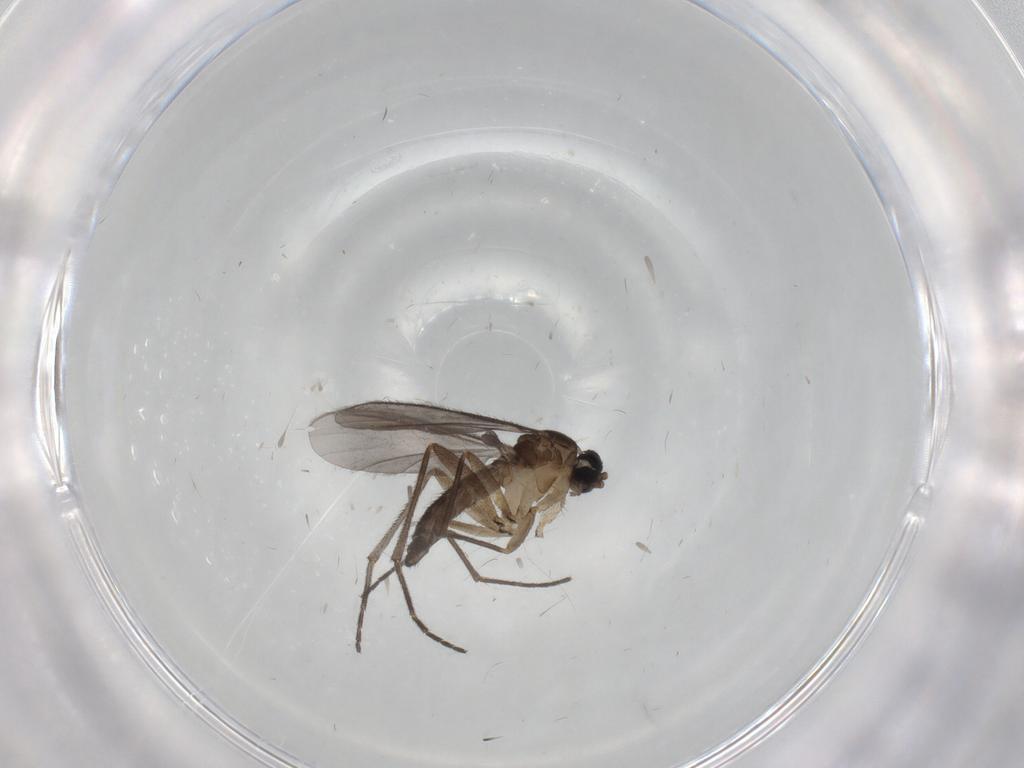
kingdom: Animalia
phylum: Arthropoda
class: Insecta
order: Diptera
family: Sciaridae
